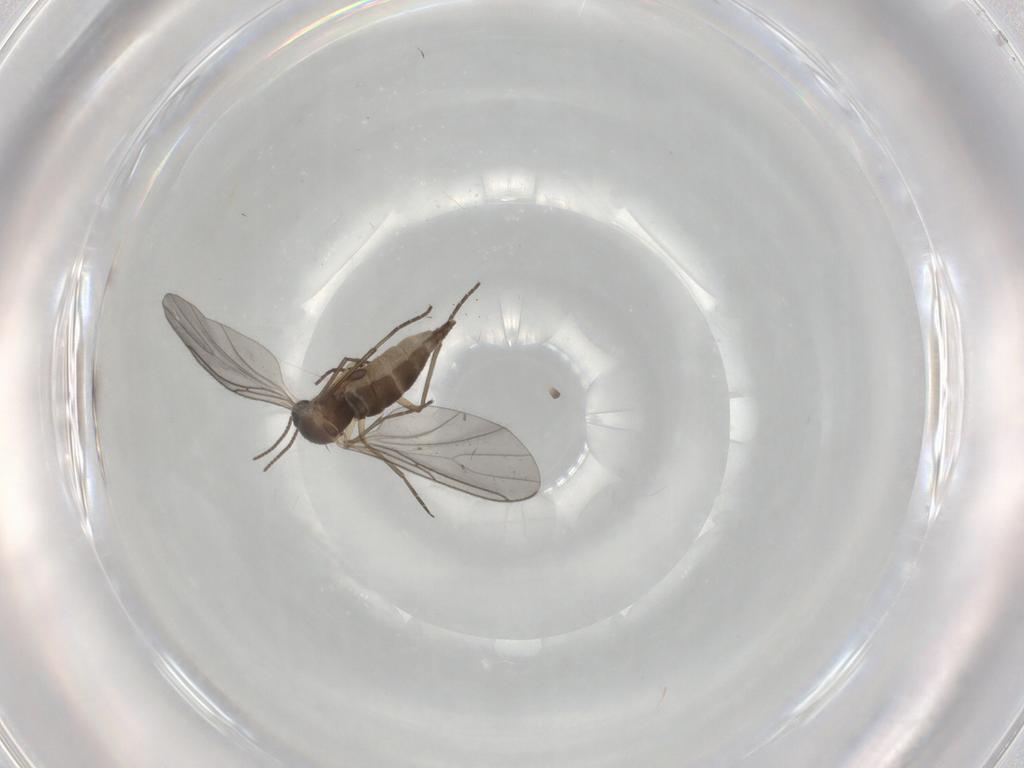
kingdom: Animalia
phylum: Arthropoda
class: Insecta
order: Diptera
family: Sciaridae
